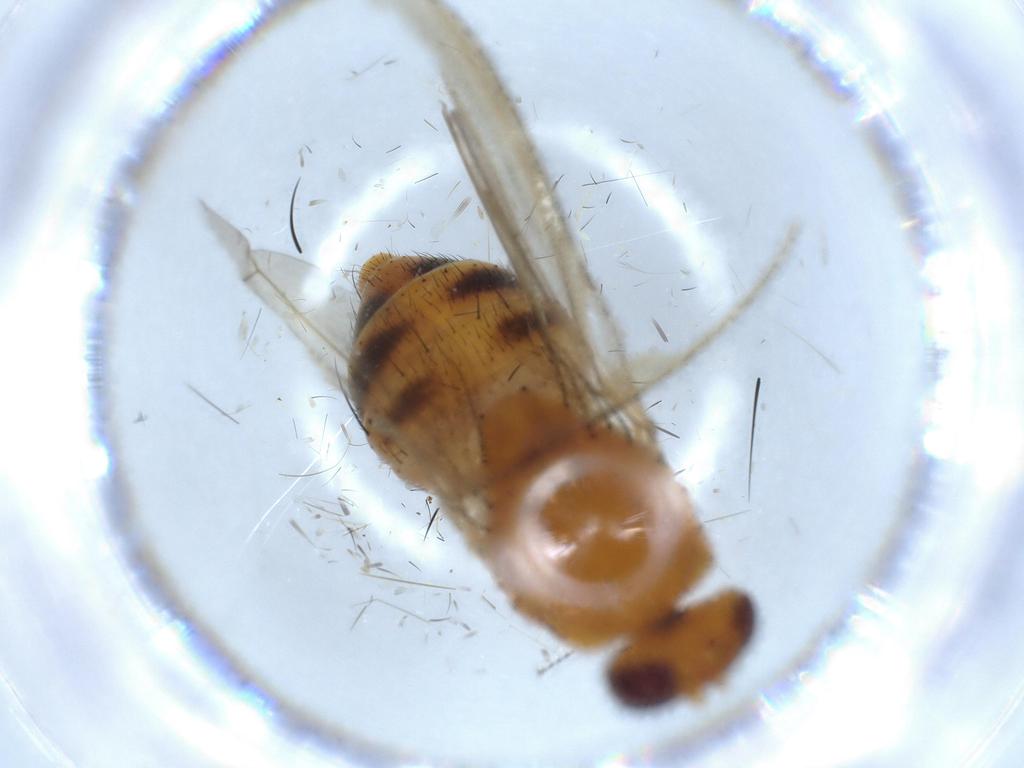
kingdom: Animalia
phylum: Arthropoda
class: Insecta
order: Diptera
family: Cecidomyiidae
